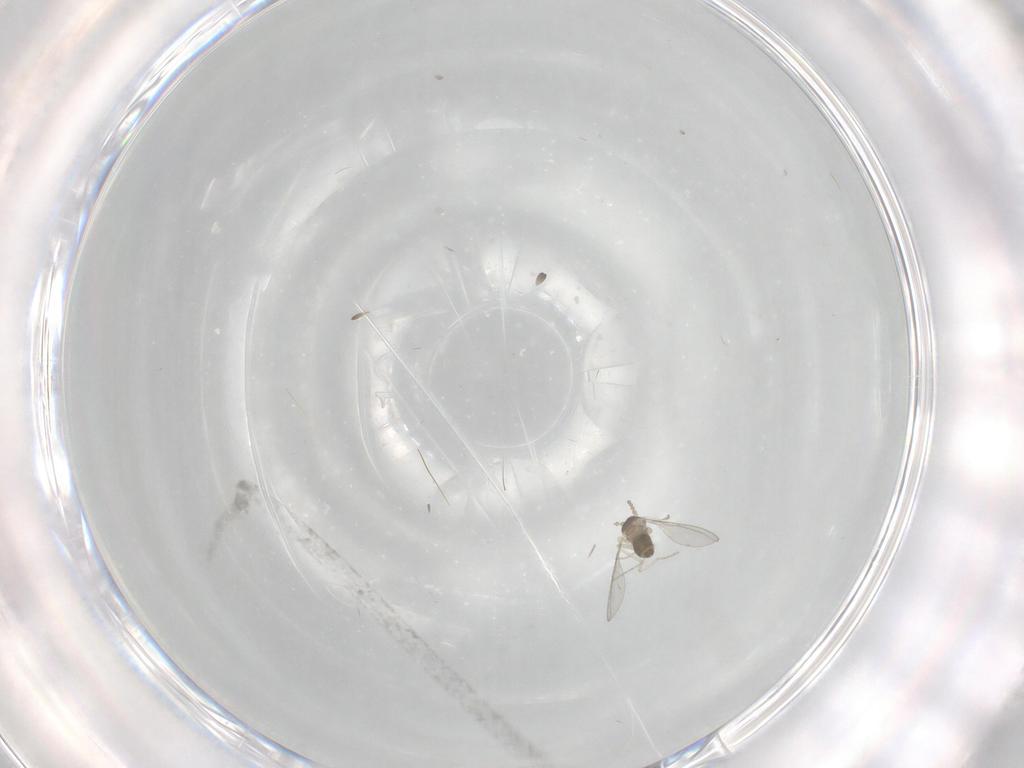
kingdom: Animalia
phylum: Arthropoda
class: Insecta
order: Diptera
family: Cecidomyiidae
